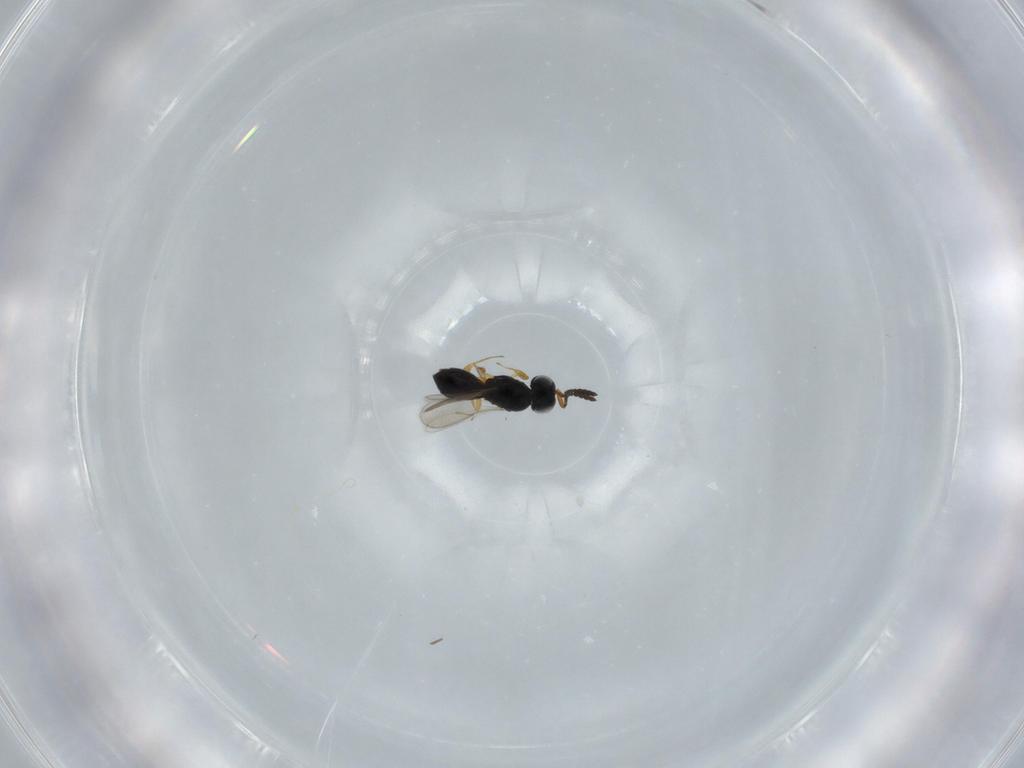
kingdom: Animalia
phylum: Arthropoda
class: Insecta
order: Hymenoptera
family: Scelionidae
